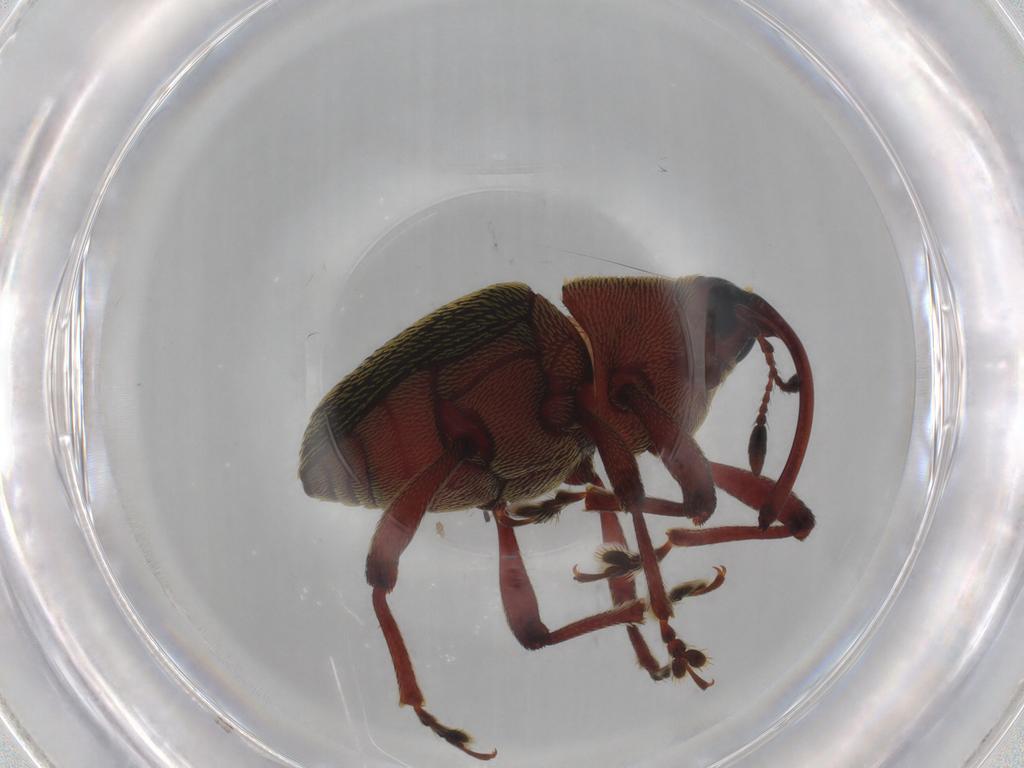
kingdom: Animalia
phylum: Arthropoda
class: Insecta
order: Coleoptera
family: Curculionidae
